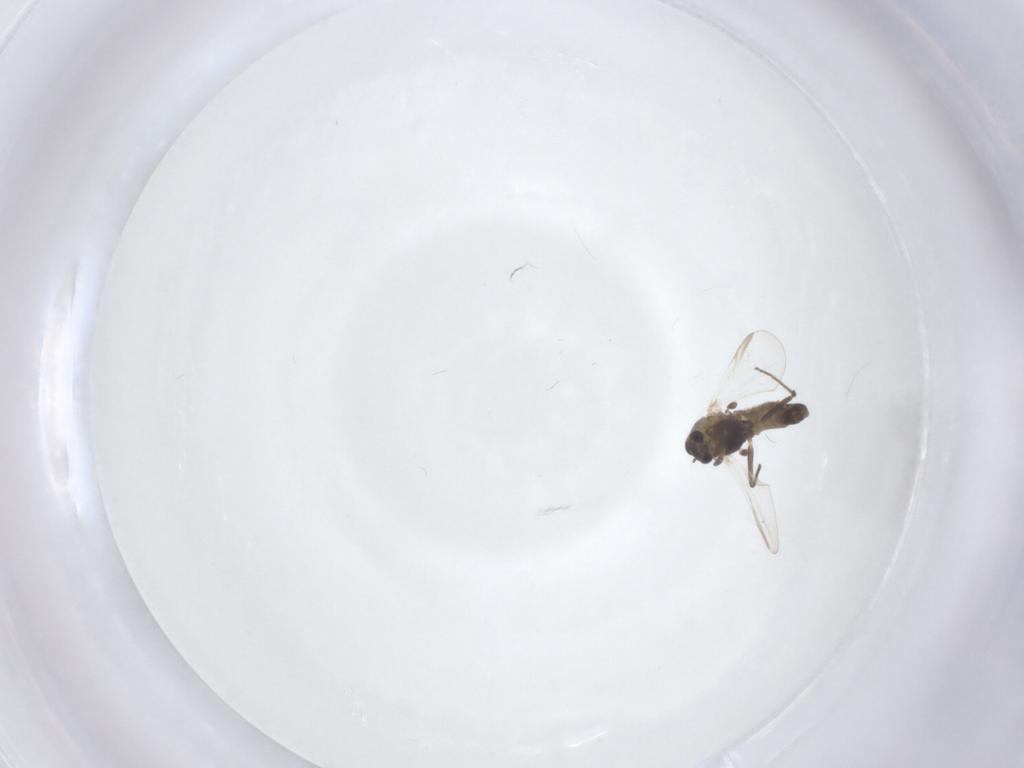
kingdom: Animalia
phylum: Arthropoda
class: Insecta
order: Diptera
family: Chironomidae
